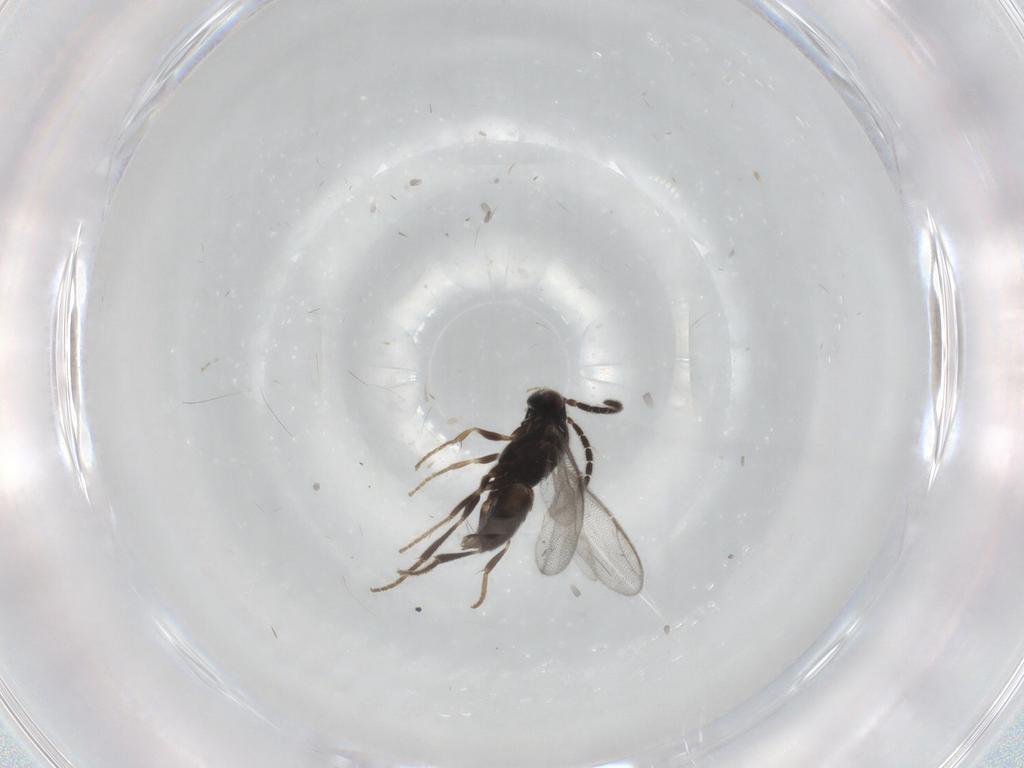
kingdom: Animalia
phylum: Arthropoda
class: Insecta
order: Hymenoptera
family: Dryinidae
